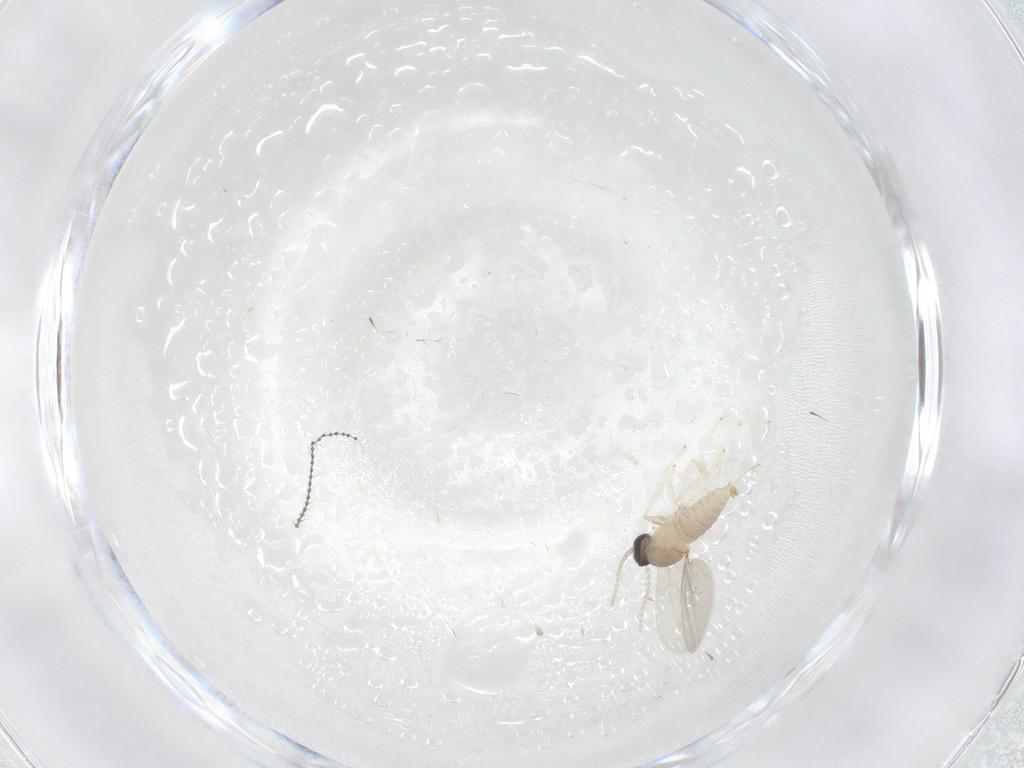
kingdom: Animalia
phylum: Arthropoda
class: Insecta
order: Diptera
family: Cecidomyiidae
